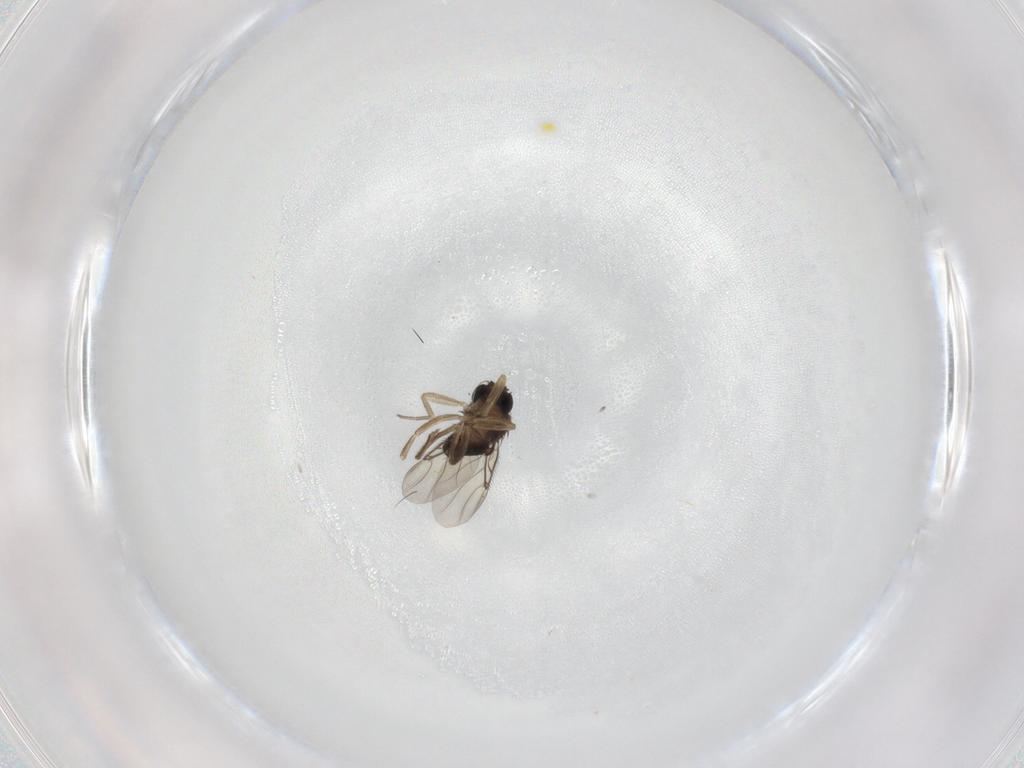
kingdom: Animalia
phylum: Arthropoda
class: Insecta
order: Diptera
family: Phoridae
